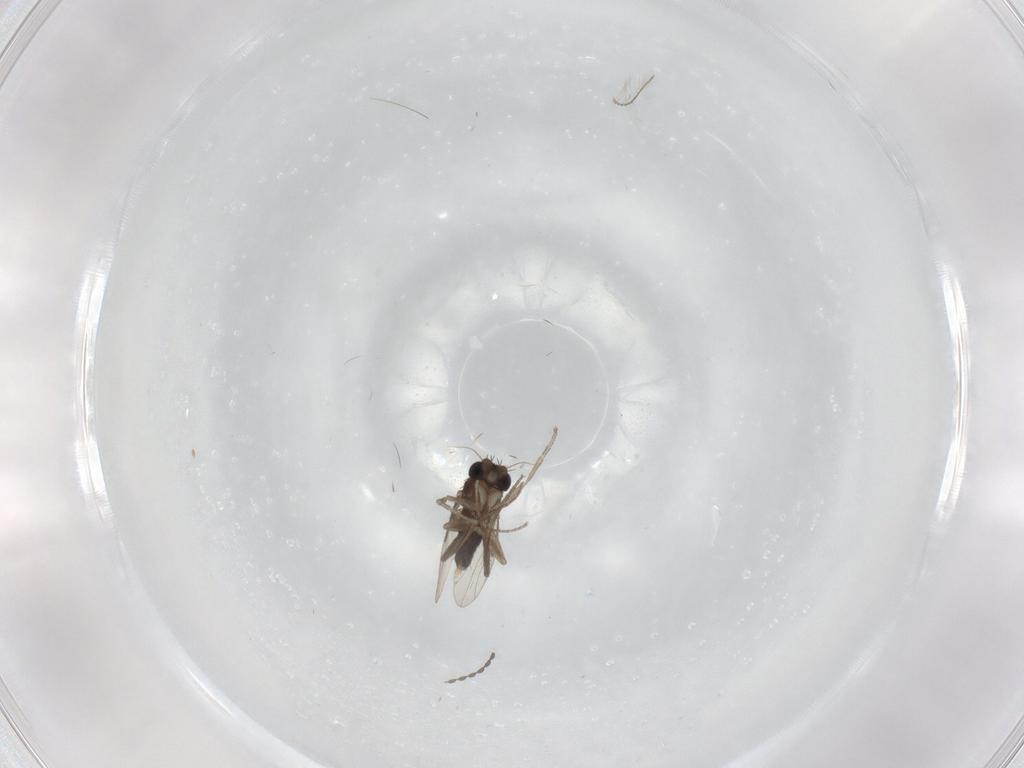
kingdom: Animalia
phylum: Arthropoda
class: Insecta
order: Diptera
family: Phoridae
